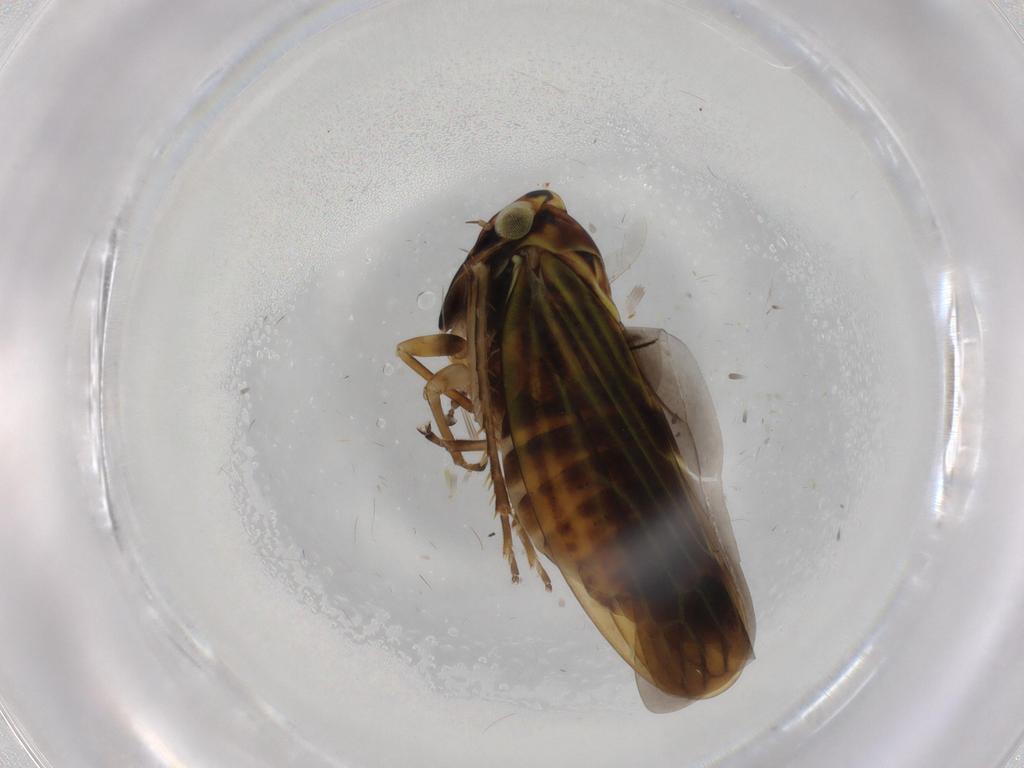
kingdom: Animalia
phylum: Arthropoda
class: Insecta
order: Hemiptera
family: Cicadellidae
